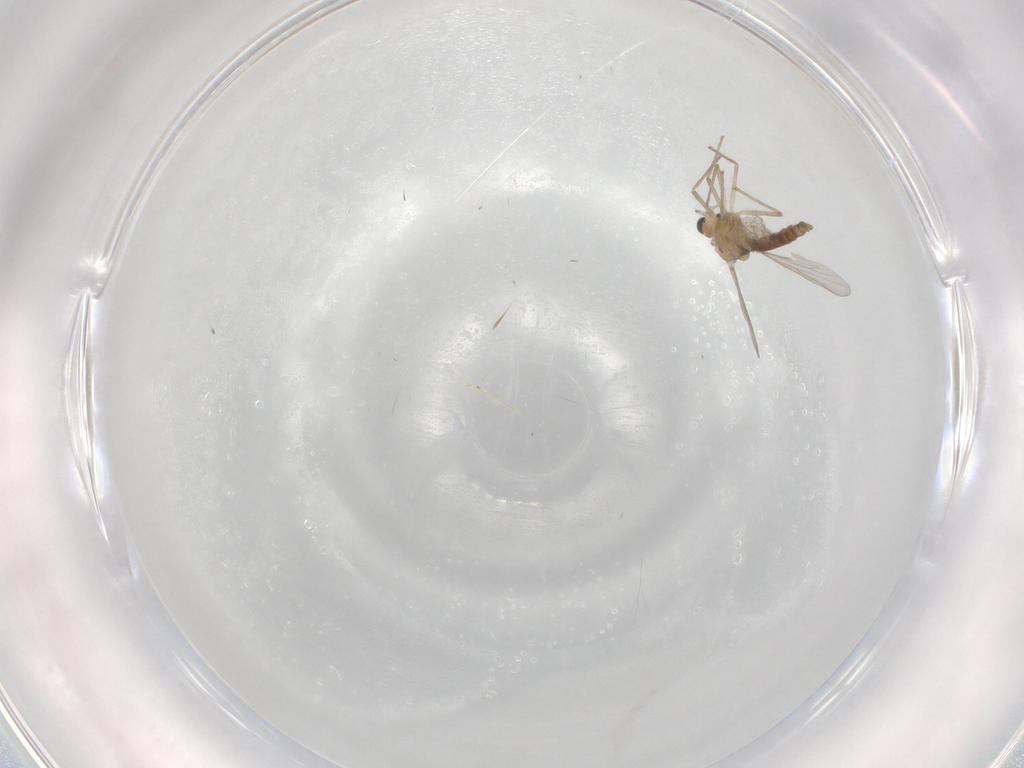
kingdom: Animalia
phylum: Arthropoda
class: Insecta
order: Diptera
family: Chironomidae
